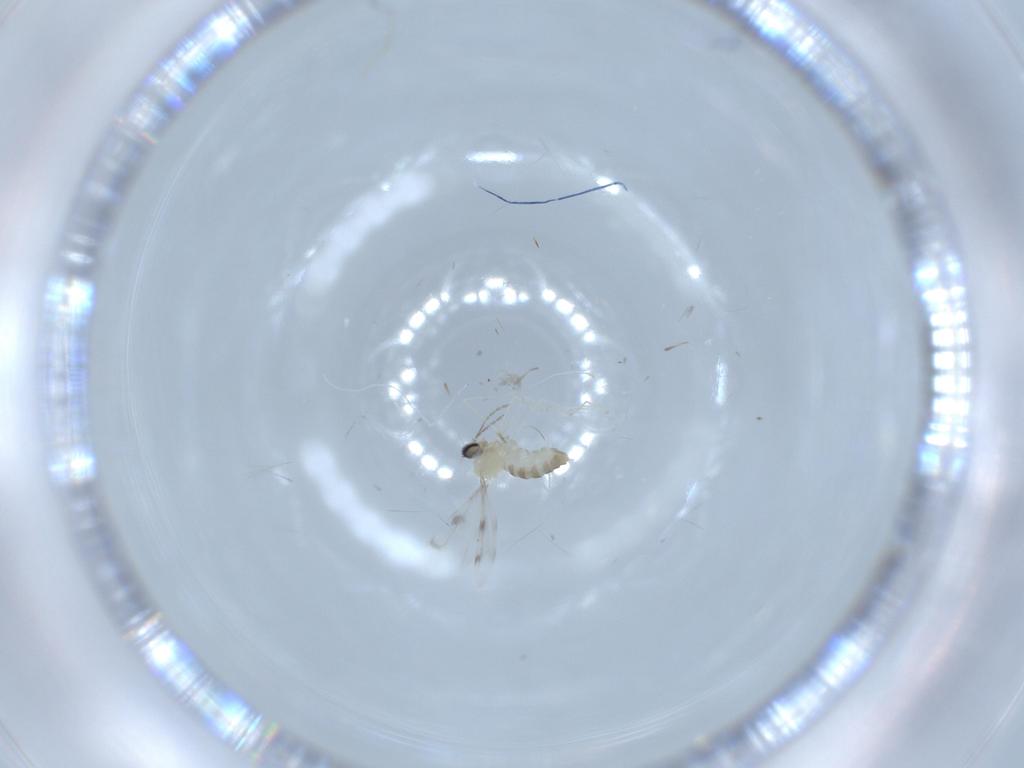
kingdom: Animalia
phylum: Arthropoda
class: Insecta
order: Diptera
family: Cecidomyiidae
